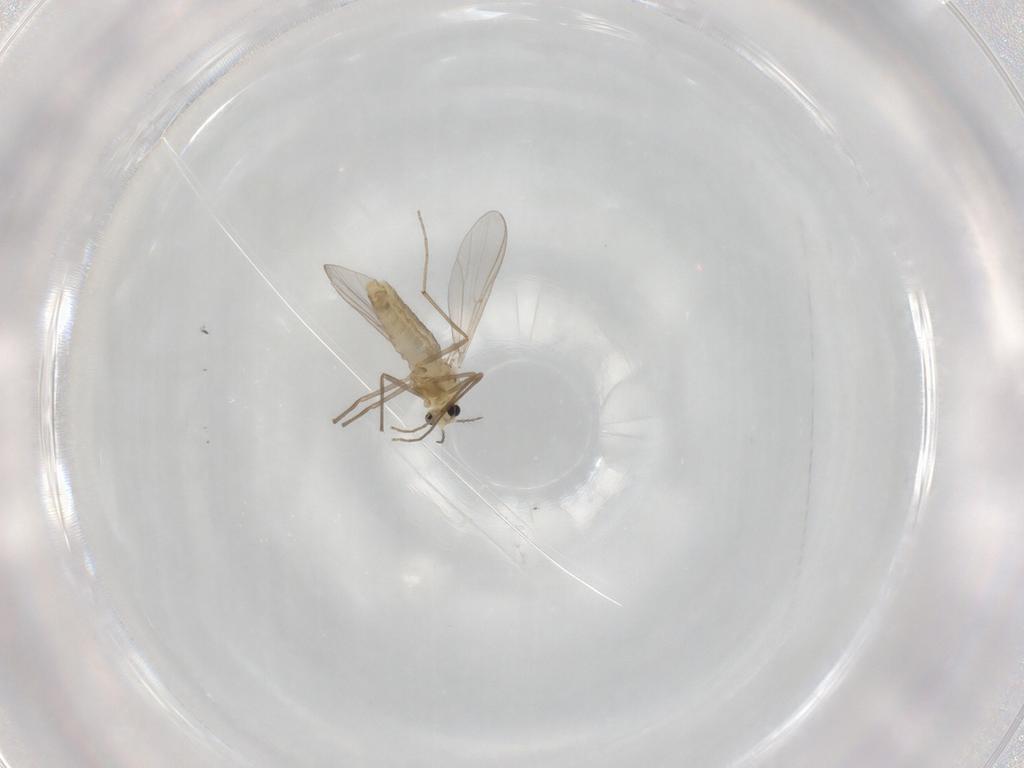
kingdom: Animalia
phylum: Arthropoda
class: Insecta
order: Diptera
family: Chironomidae
